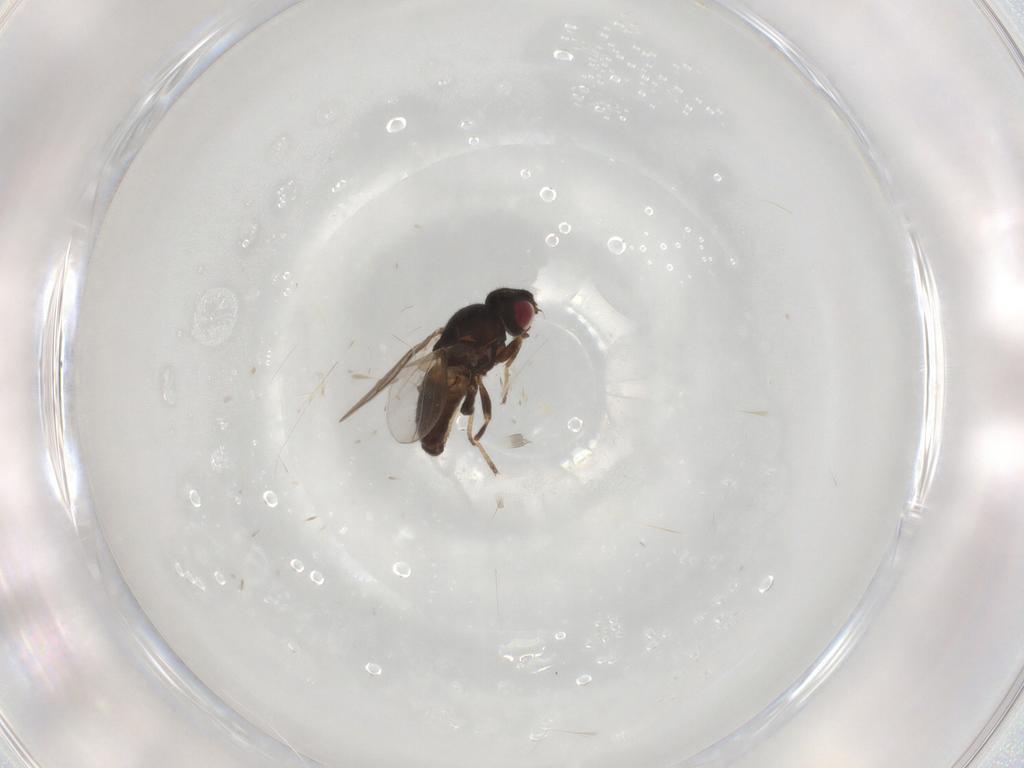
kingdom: Animalia
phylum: Arthropoda
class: Insecta
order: Diptera
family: Chloropidae
